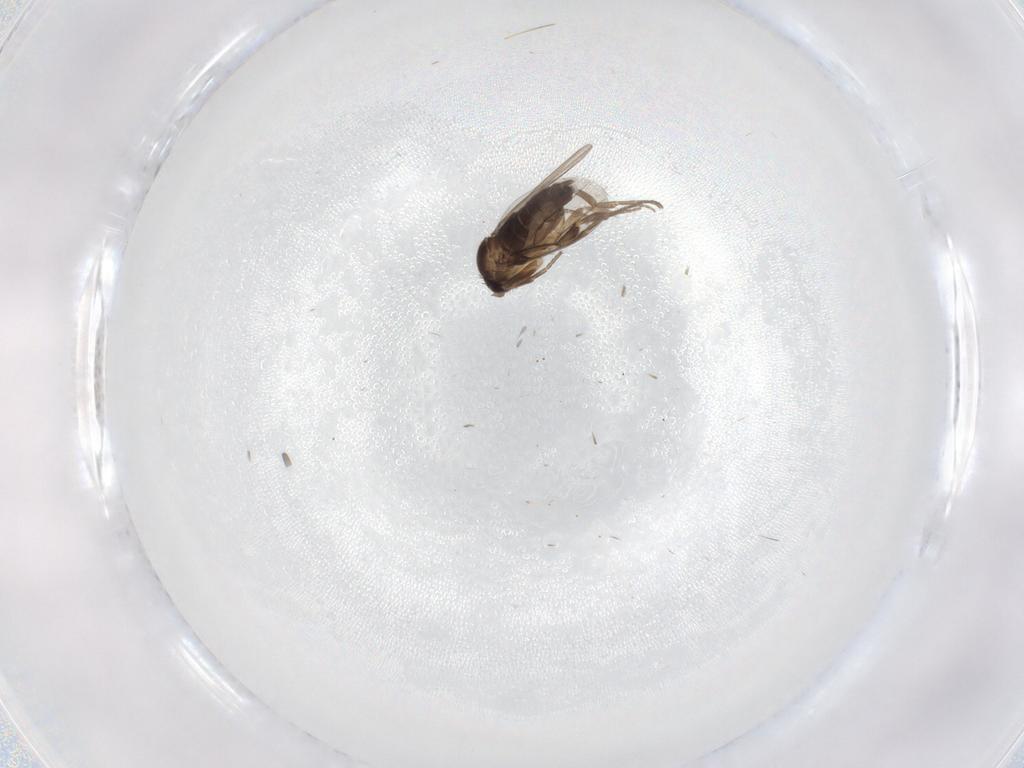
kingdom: Animalia
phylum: Arthropoda
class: Insecta
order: Diptera
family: Phoridae
